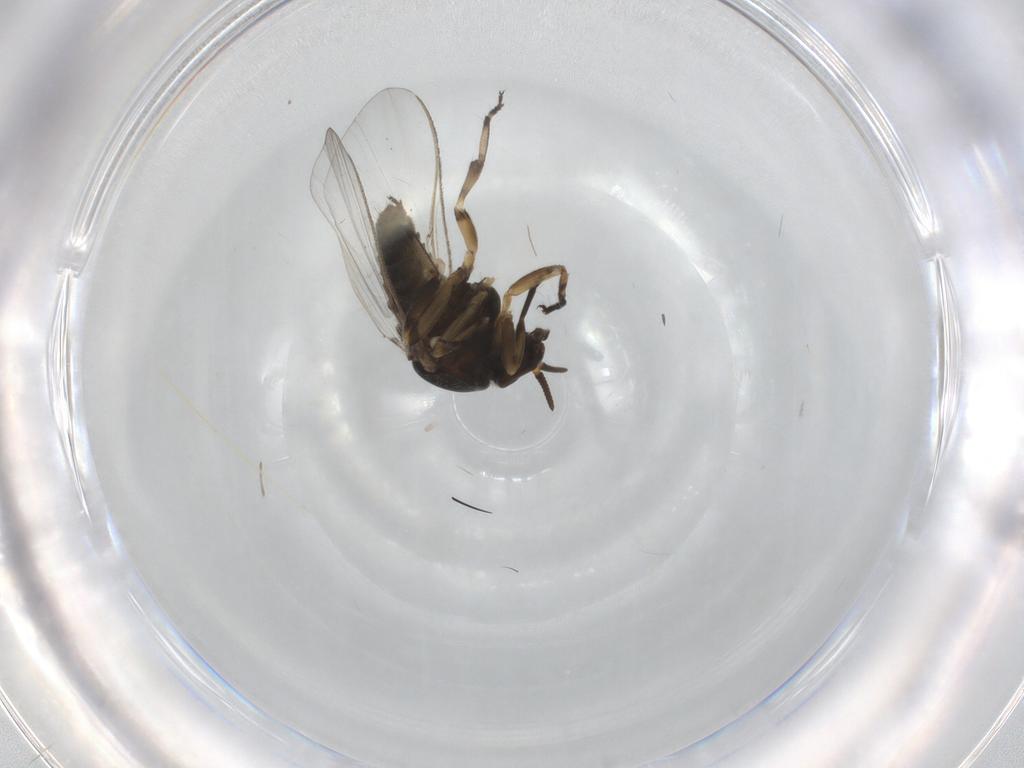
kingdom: Animalia
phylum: Arthropoda
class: Insecta
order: Diptera
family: Phoridae
